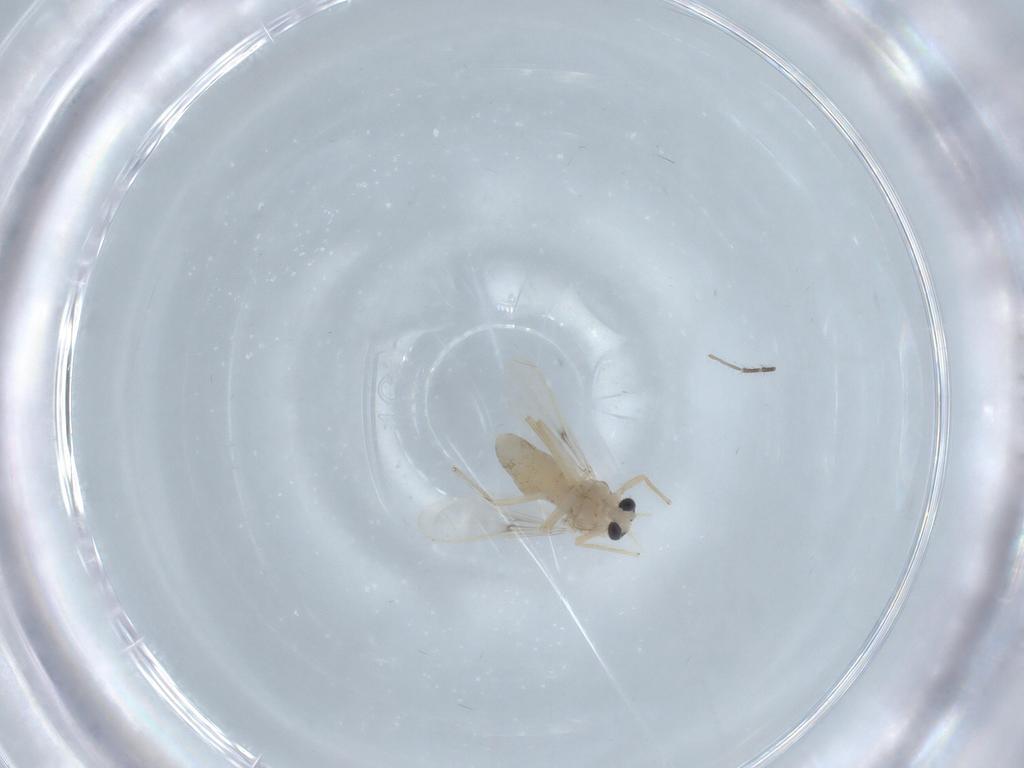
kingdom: Animalia
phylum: Arthropoda
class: Insecta
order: Diptera
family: Chironomidae
